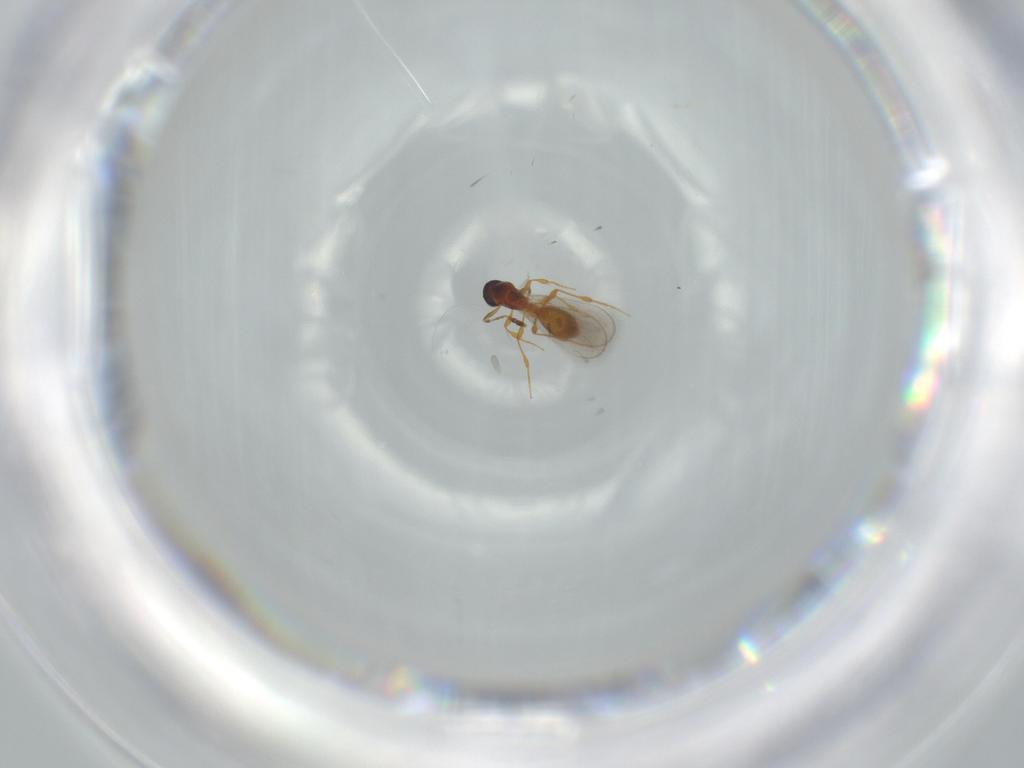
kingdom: Animalia
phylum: Arthropoda
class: Insecta
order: Hymenoptera
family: Platygastridae
